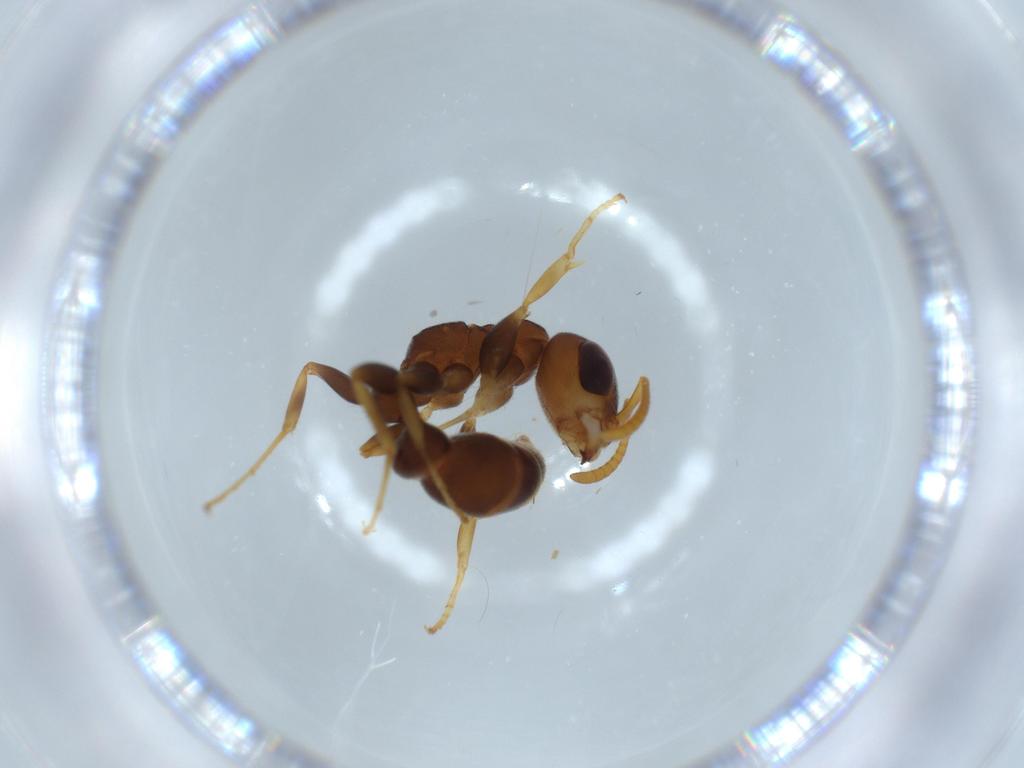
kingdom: Animalia
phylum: Arthropoda
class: Insecta
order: Hymenoptera
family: Formicidae
